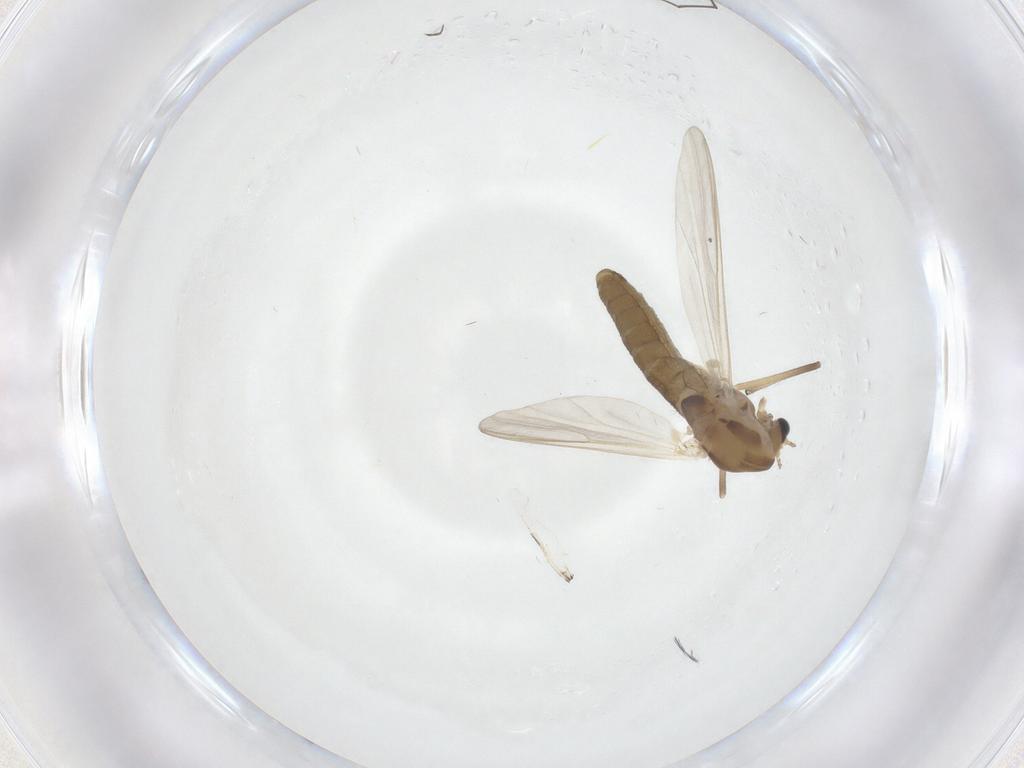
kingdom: Animalia
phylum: Arthropoda
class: Insecta
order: Diptera
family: Chironomidae
